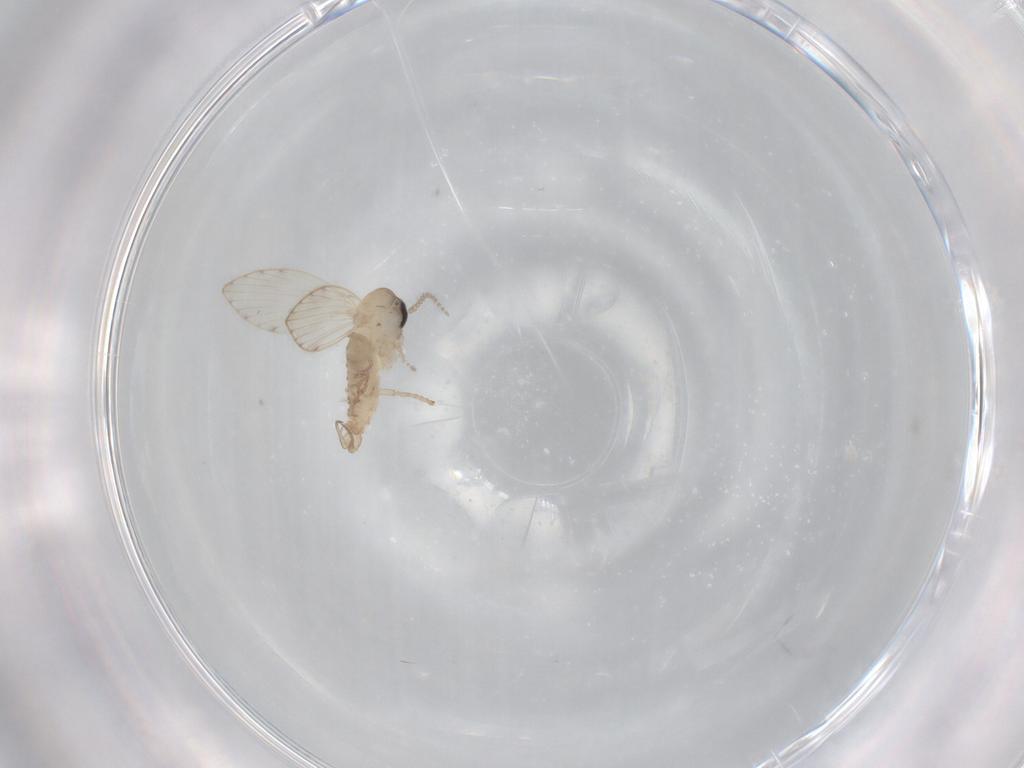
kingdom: Animalia
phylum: Arthropoda
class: Insecta
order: Diptera
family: Psychodidae
